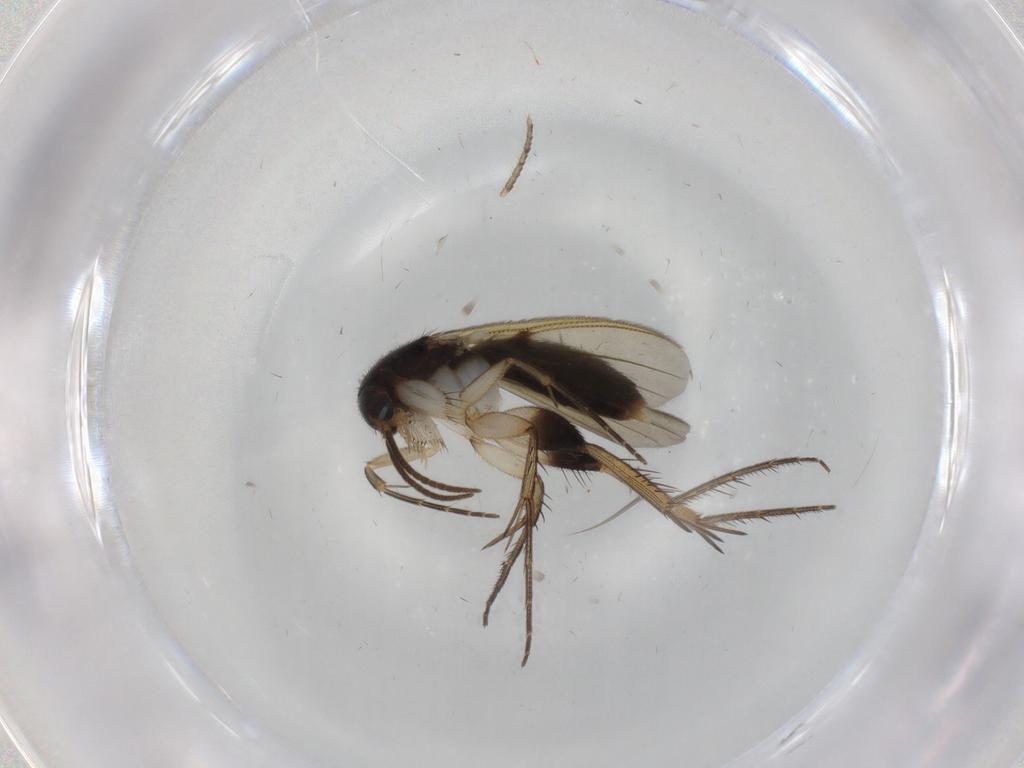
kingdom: Animalia
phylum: Arthropoda
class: Insecta
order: Diptera
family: Mycetophilidae
